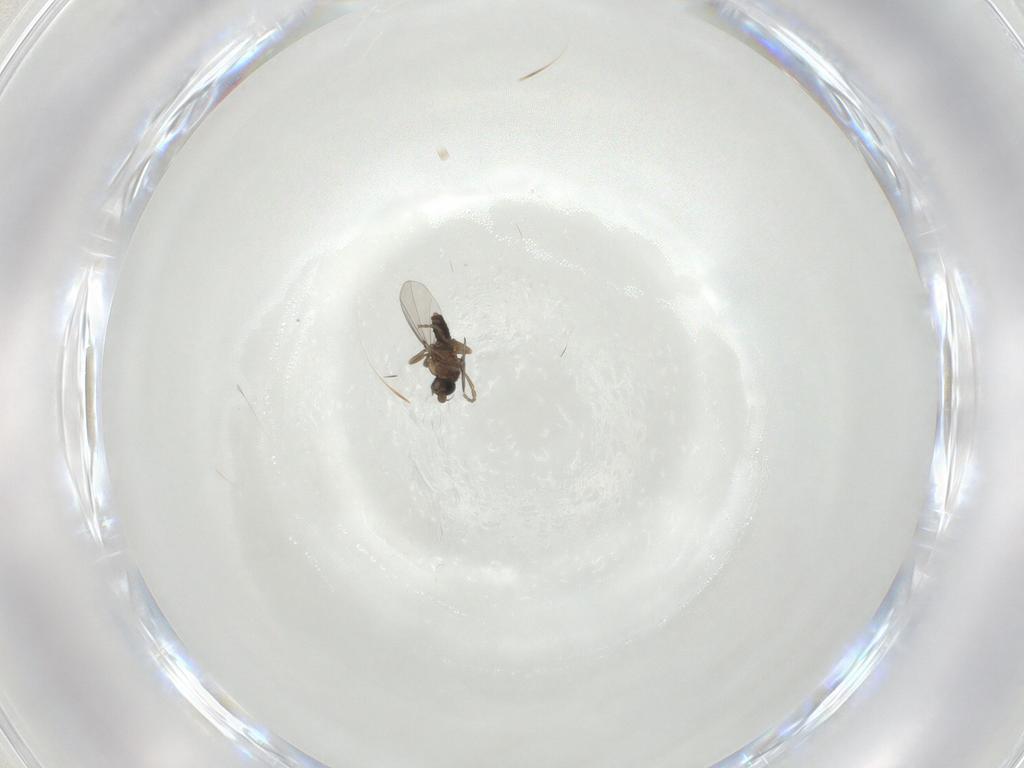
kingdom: Animalia
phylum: Arthropoda
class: Insecta
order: Diptera
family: Phoridae
